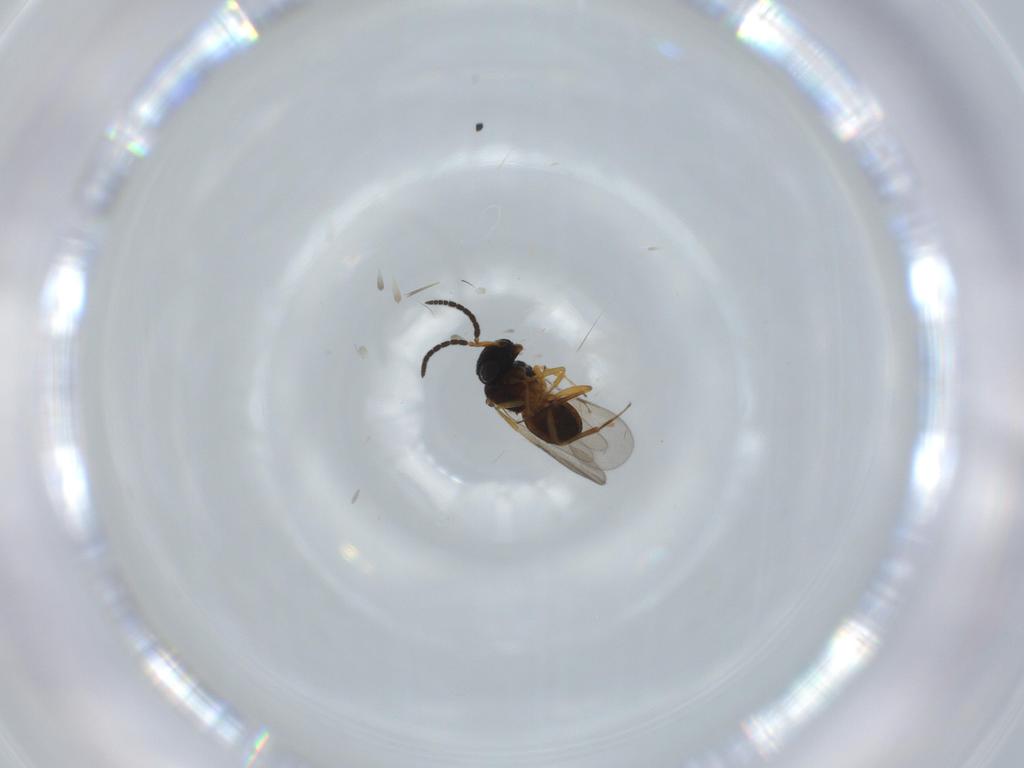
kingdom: Animalia
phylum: Arthropoda
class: Insecta
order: Hymenoptera
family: Scelionidae
